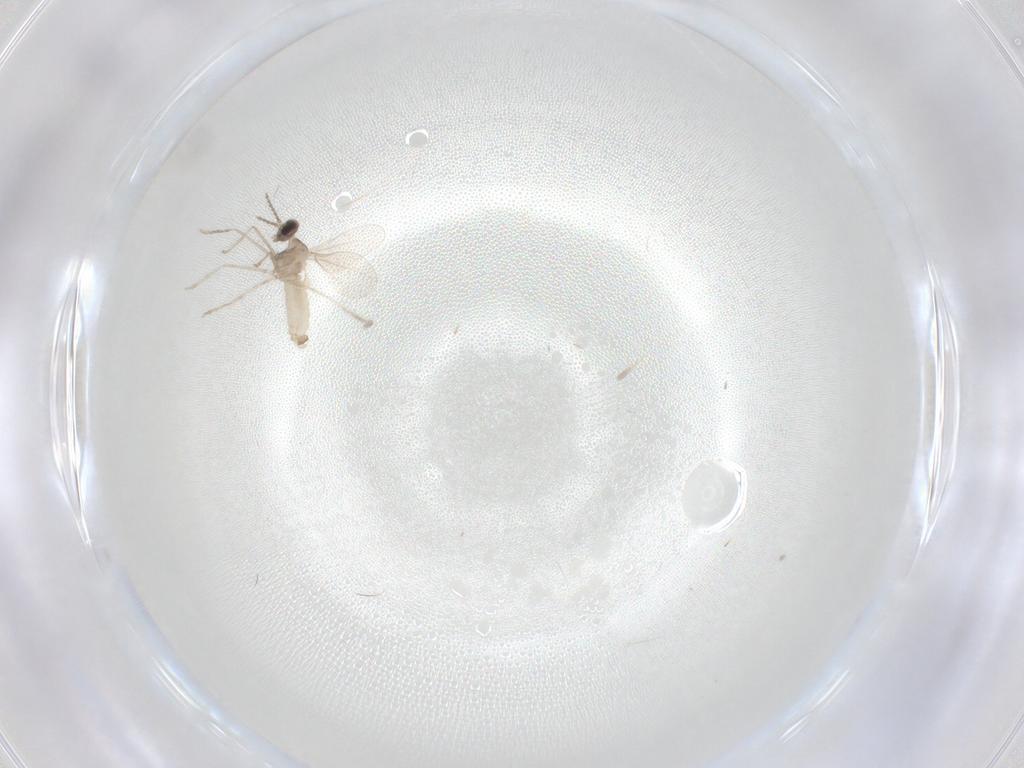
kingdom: Animalia
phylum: Arthropoda
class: Insecta
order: Diptera
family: Cecidomyiidae
